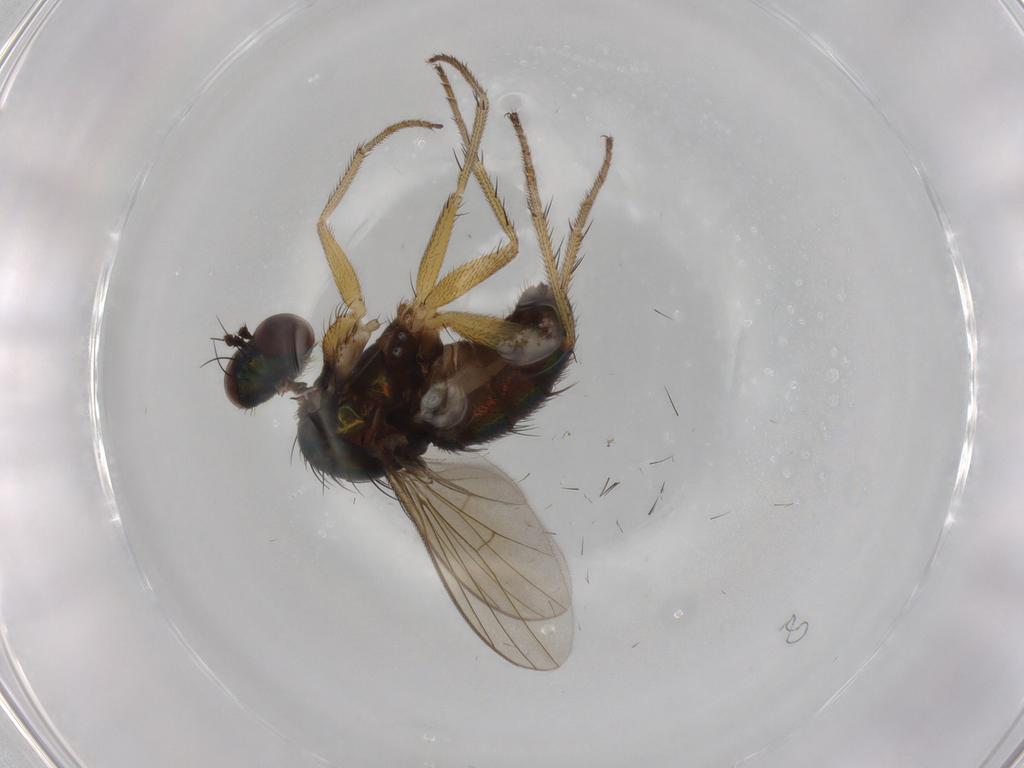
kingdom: Animalia
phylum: Arthropoda
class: Insecta
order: Diptera
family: Dolichopodidae
